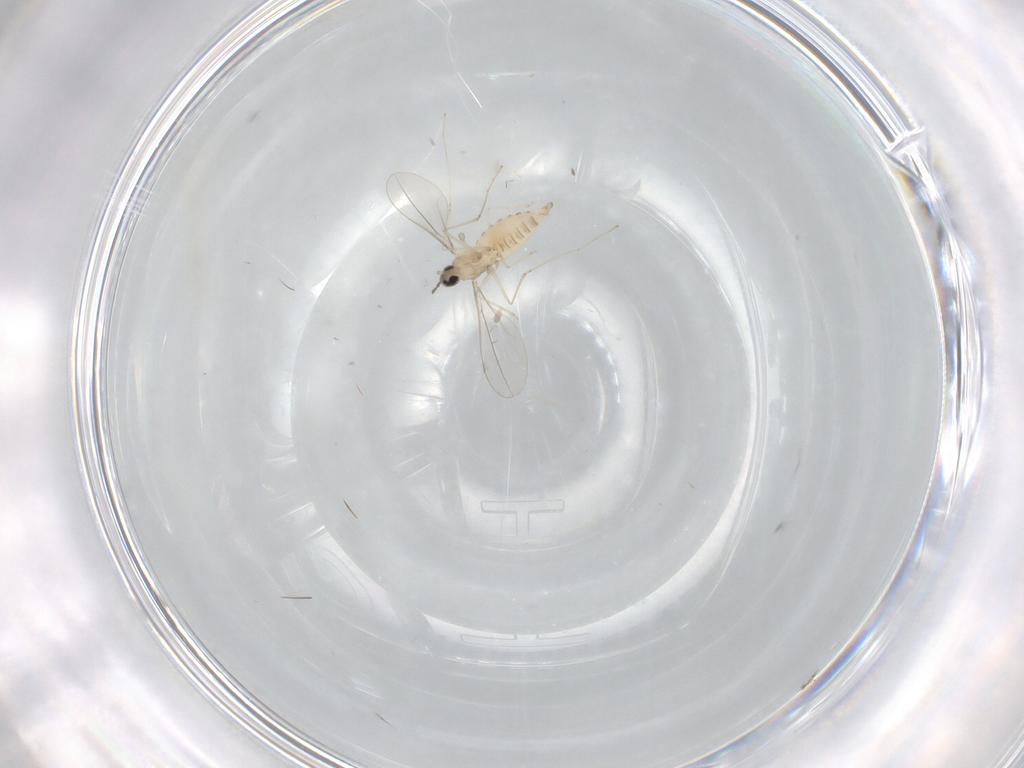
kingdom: Animalia
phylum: Arthropoda
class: Insecta
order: Diptera
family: Cecidomyiidae
